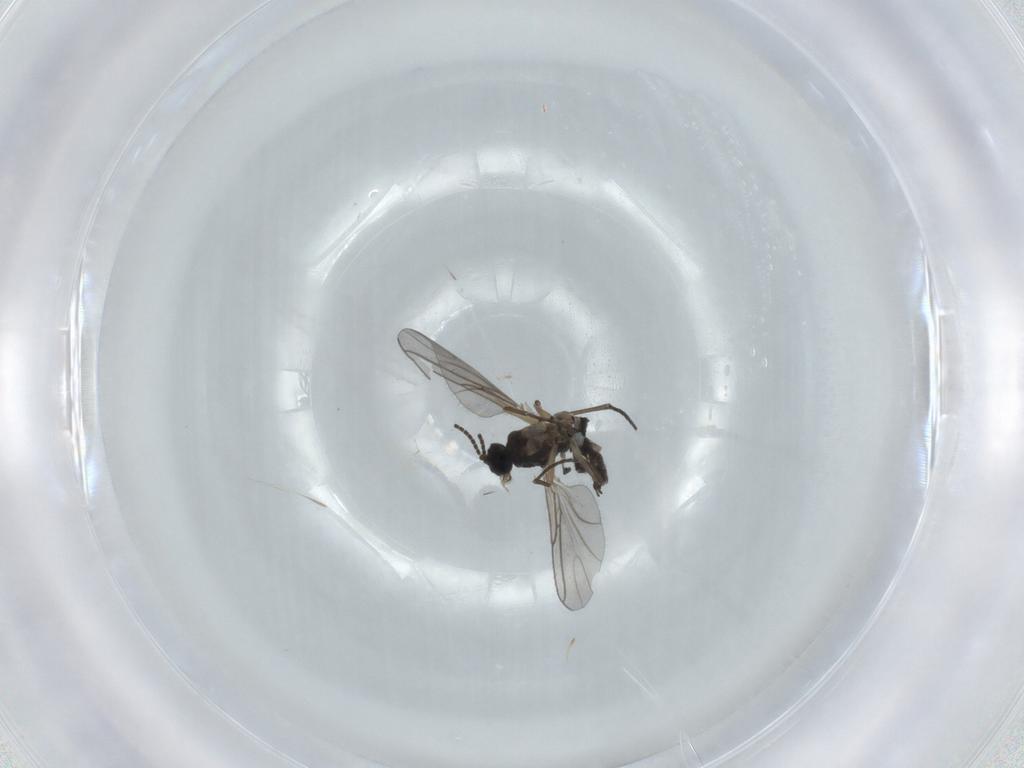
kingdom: Animalia
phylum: Arthropoda
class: Insecta
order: Diptera
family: Sciaridae
